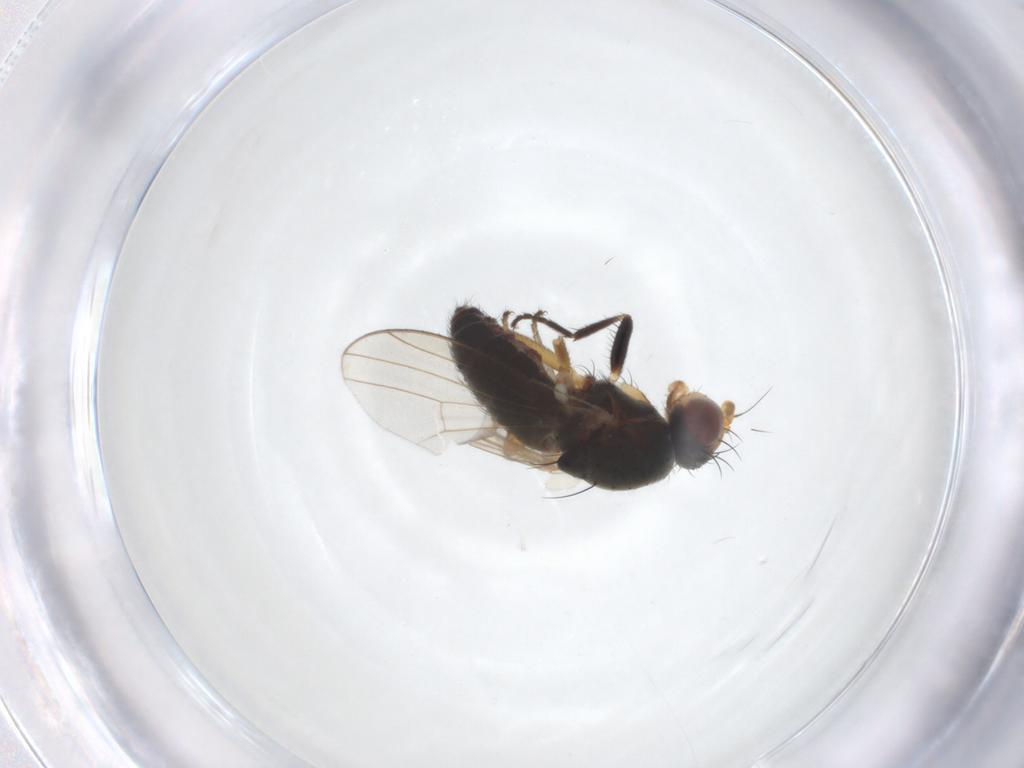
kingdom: Animalia
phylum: Arthropoda
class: Insecta
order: Diptera
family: Heleomyzidae
